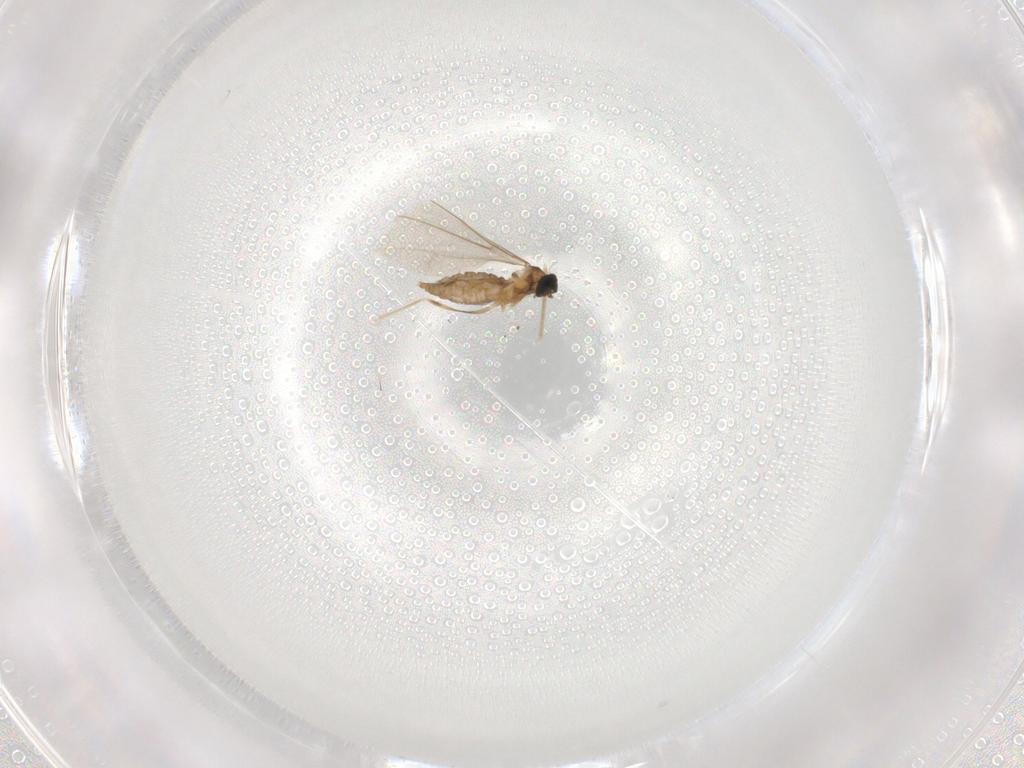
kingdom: Animalia
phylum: Arthropoda
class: Insecta
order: Diptera
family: Cecidomyiidae
